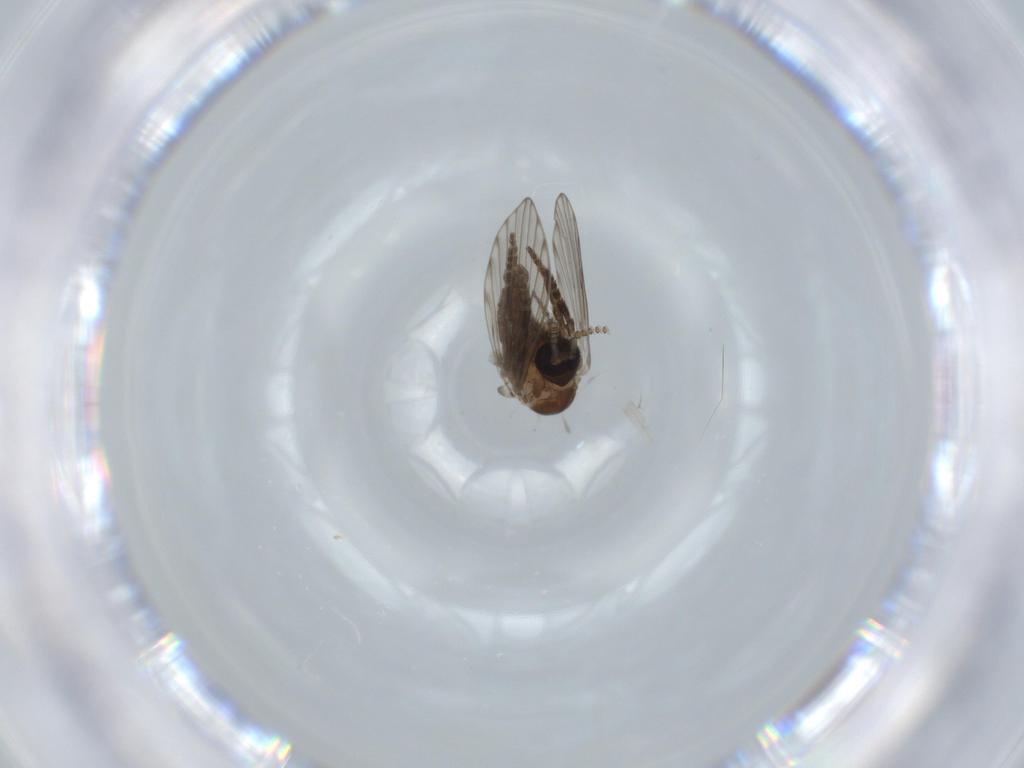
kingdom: Animalia
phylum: Arthropoda
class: Insecta
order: Diptera
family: Psychodidae
